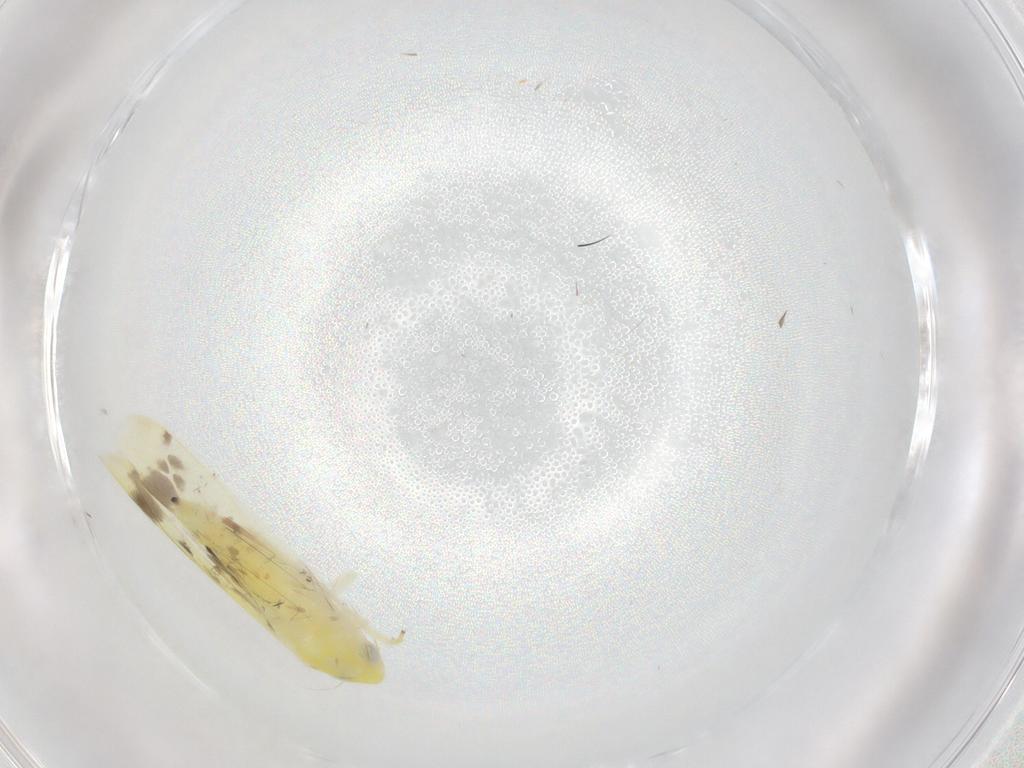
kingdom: Animalia
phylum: Arthropoda
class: Insecta
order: Hemiptera
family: Cicadellidae
